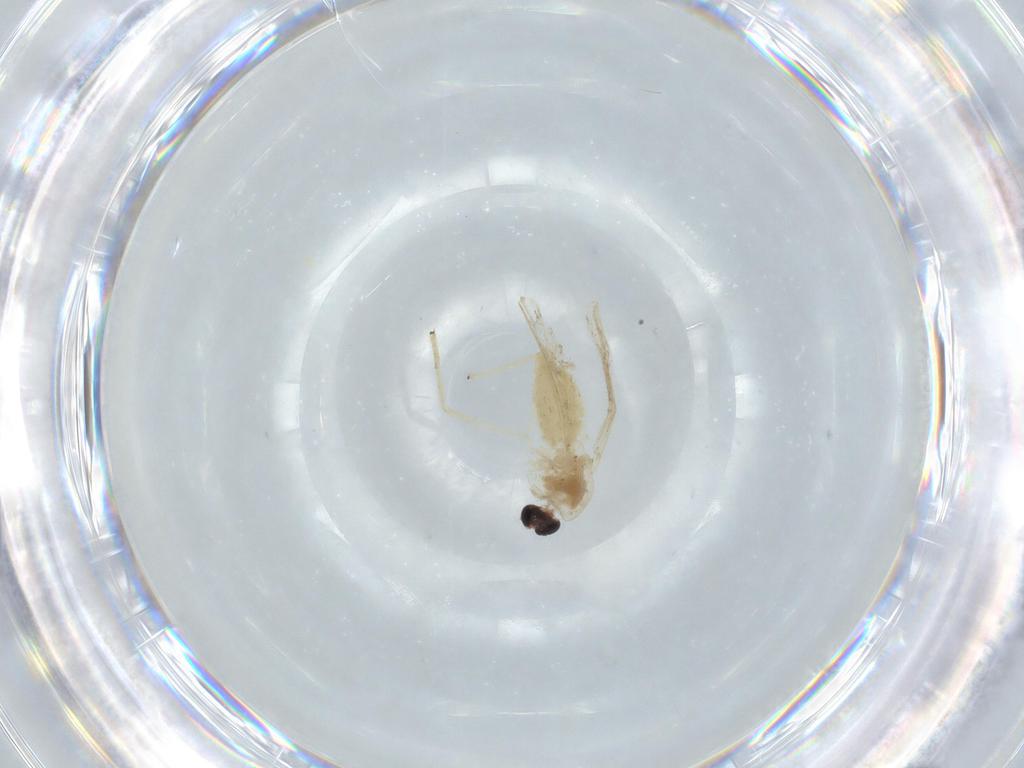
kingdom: Animalia
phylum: Arthropoda
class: Insecta
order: Diptera
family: Chironomidae
